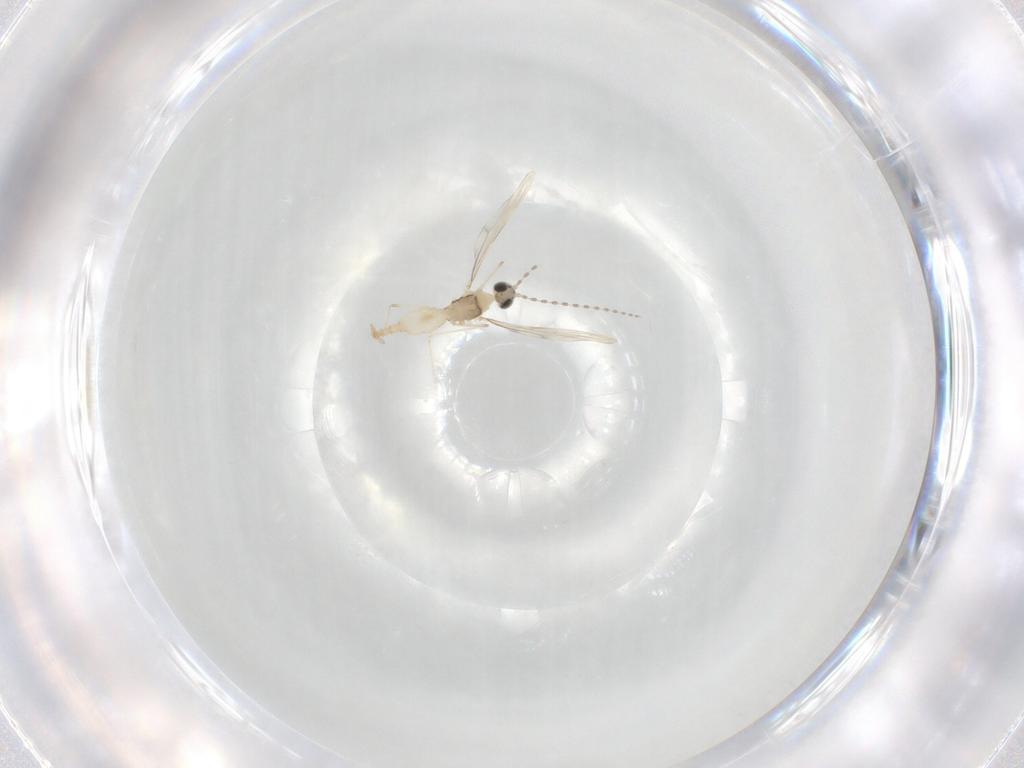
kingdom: Animalia
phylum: Arthropoda
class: Insecta
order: Diptera
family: Cecidomyiidae
